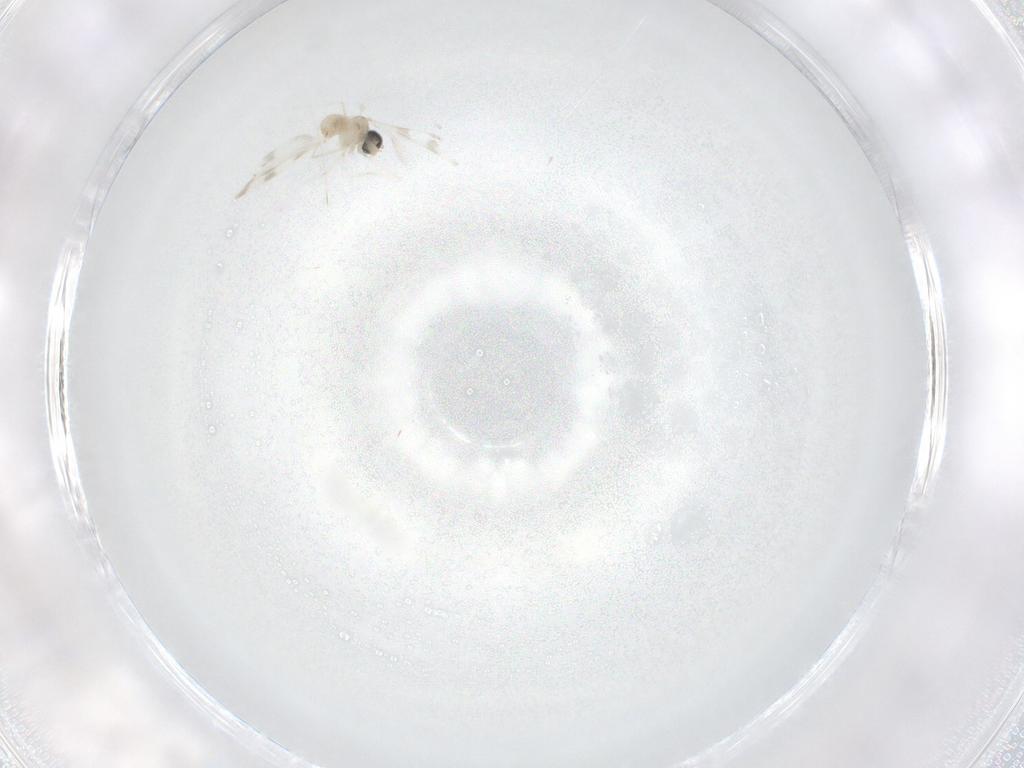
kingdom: Animalia
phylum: Arthropoda
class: Insecta
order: Diptera
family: Cecidomyiidae
